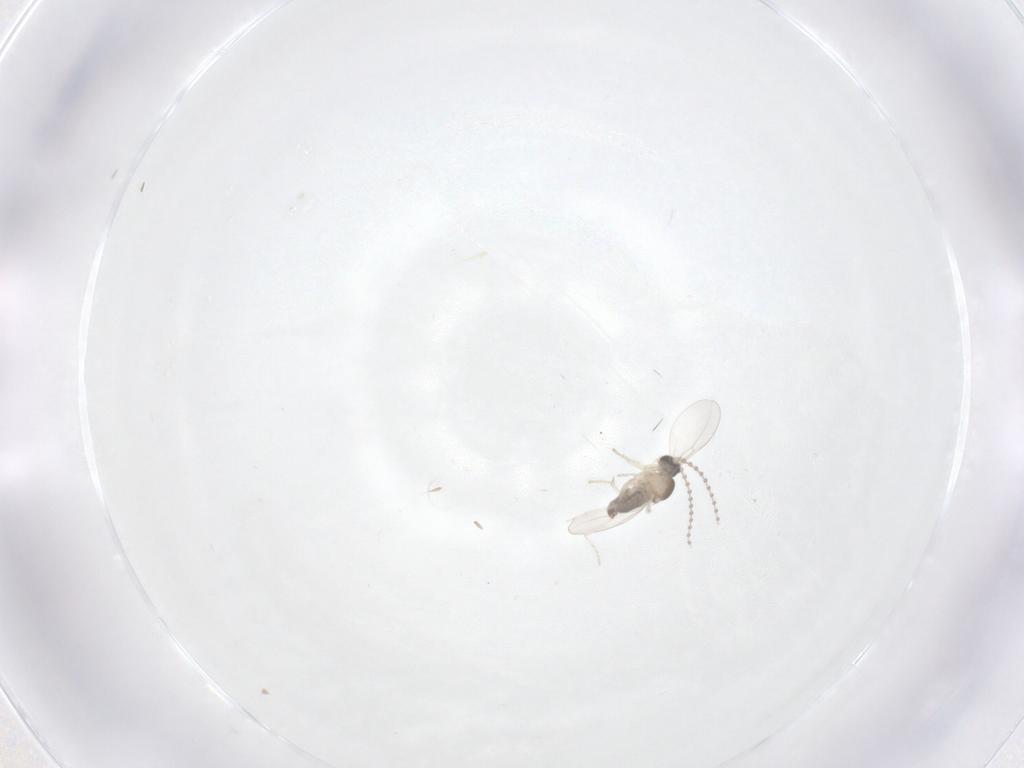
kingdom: Animalia
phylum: Arthropoda
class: Insecta
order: Diptera
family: Cecidomyiidae
